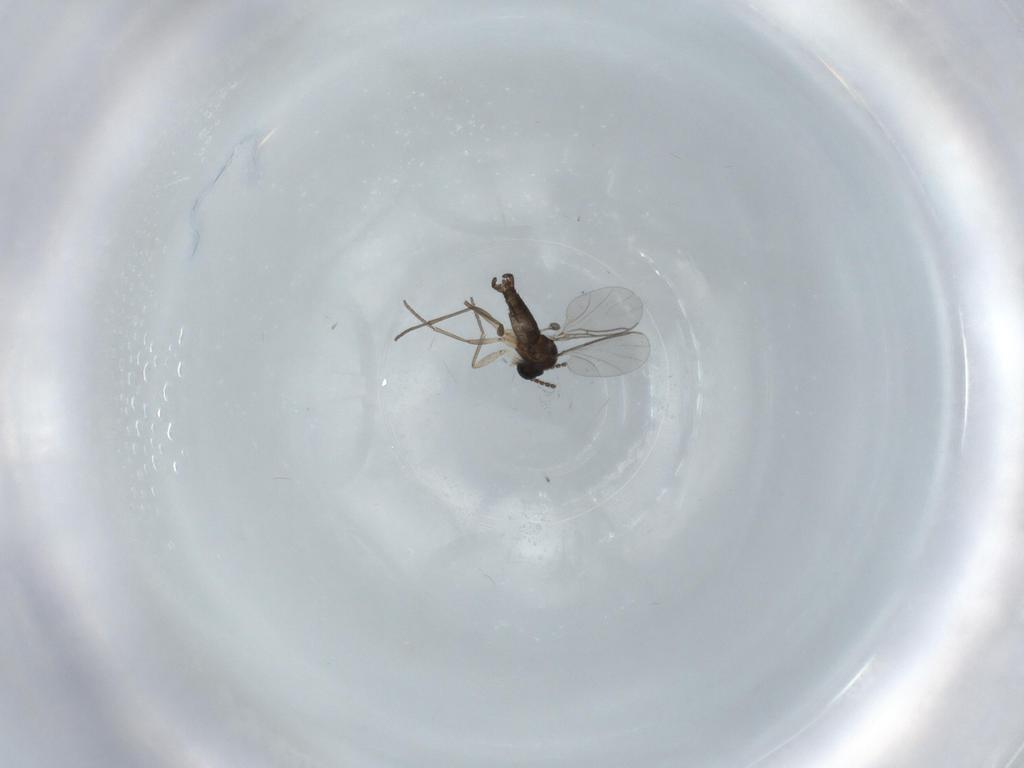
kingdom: Animalia
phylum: Arthropoda
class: Insecta
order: Diptera
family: Sciaridae
